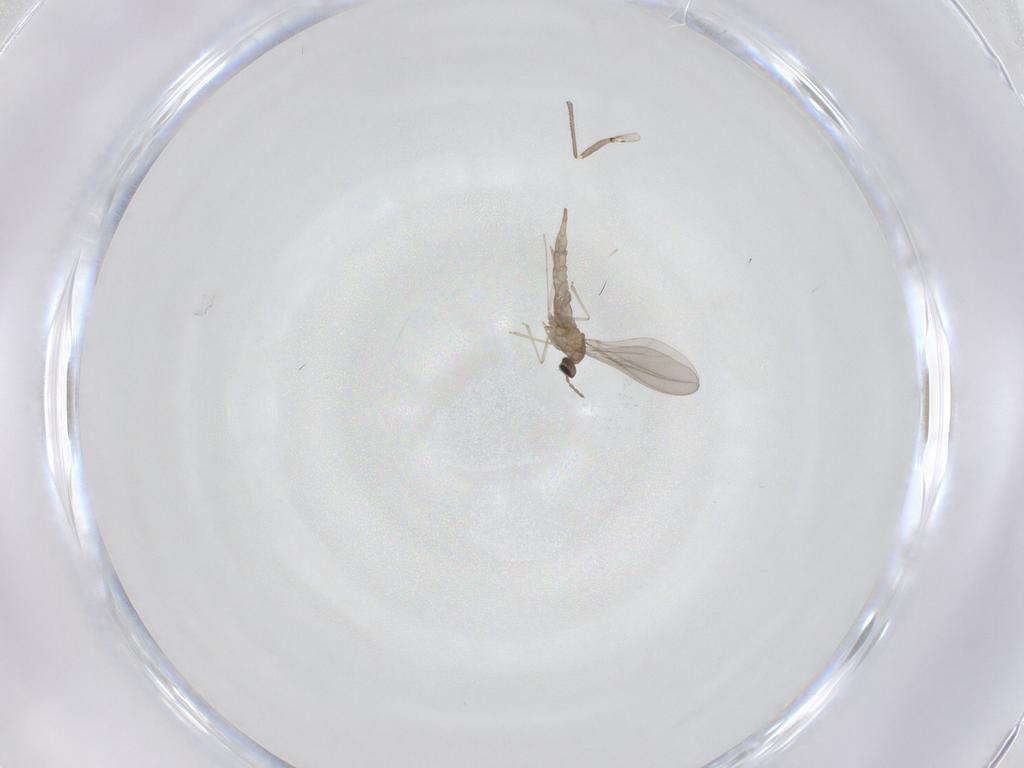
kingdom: Animalia
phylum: Arthropoda
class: Insecta
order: Diptera
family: Cecidomyiidae
